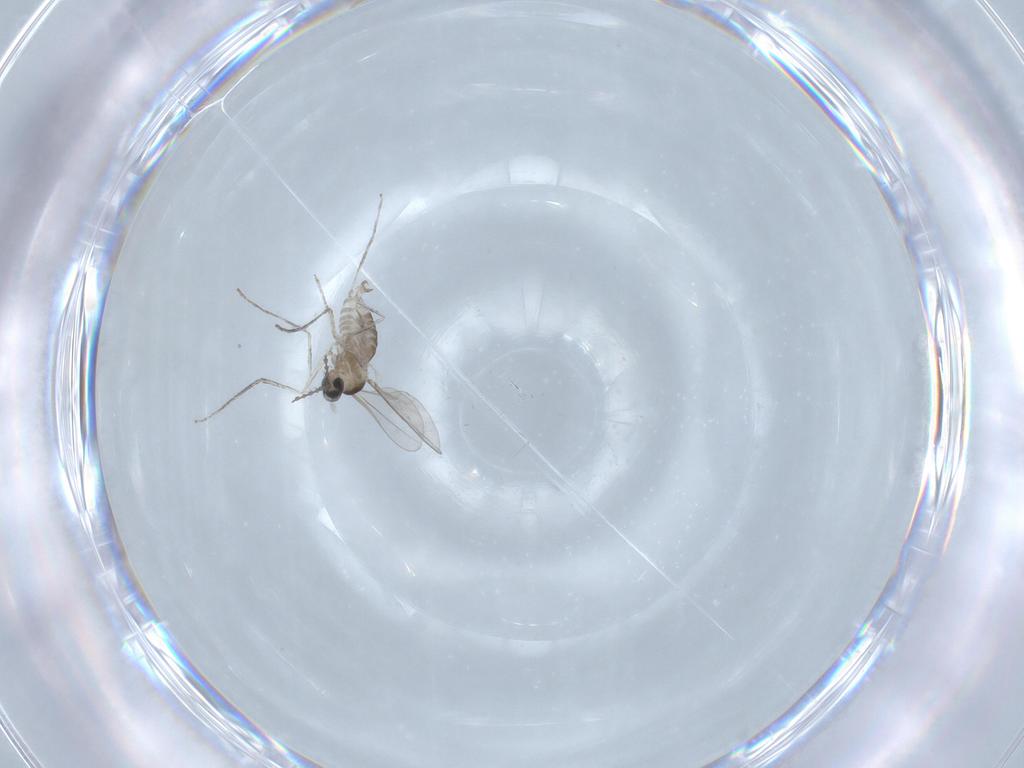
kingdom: Animalia
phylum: Arthropoda
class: Insecta
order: Diptera
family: Cecidomyiidae
